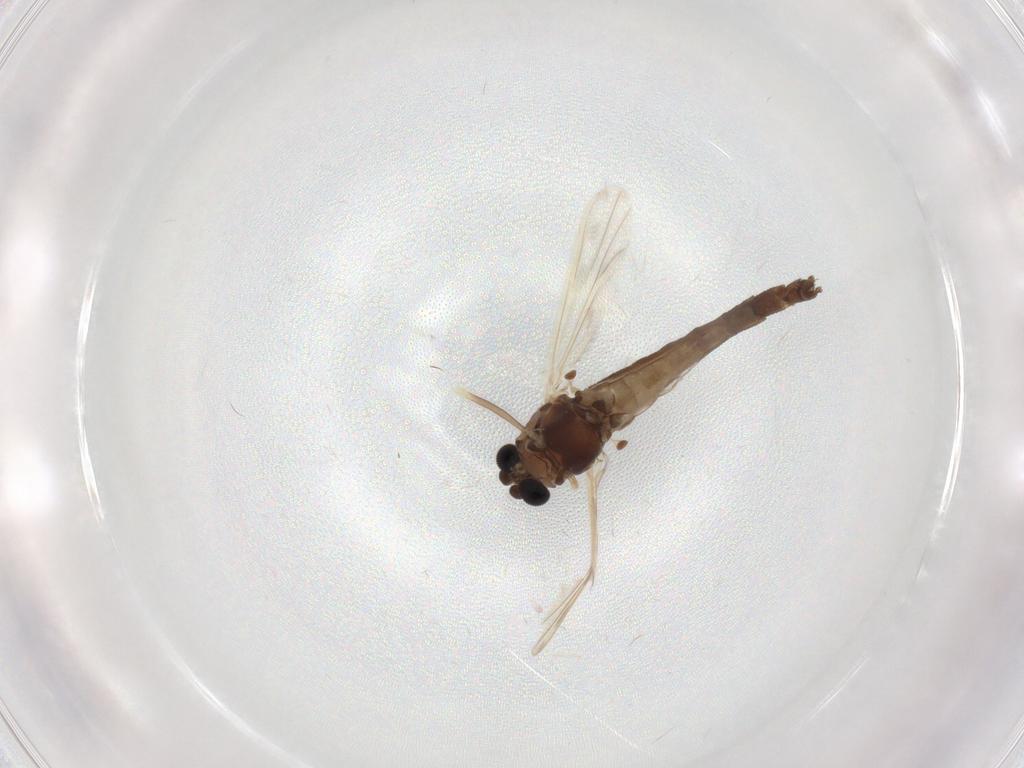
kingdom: Animalia
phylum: Arthropoda
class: Insecta
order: Diptera
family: Chironomidae
